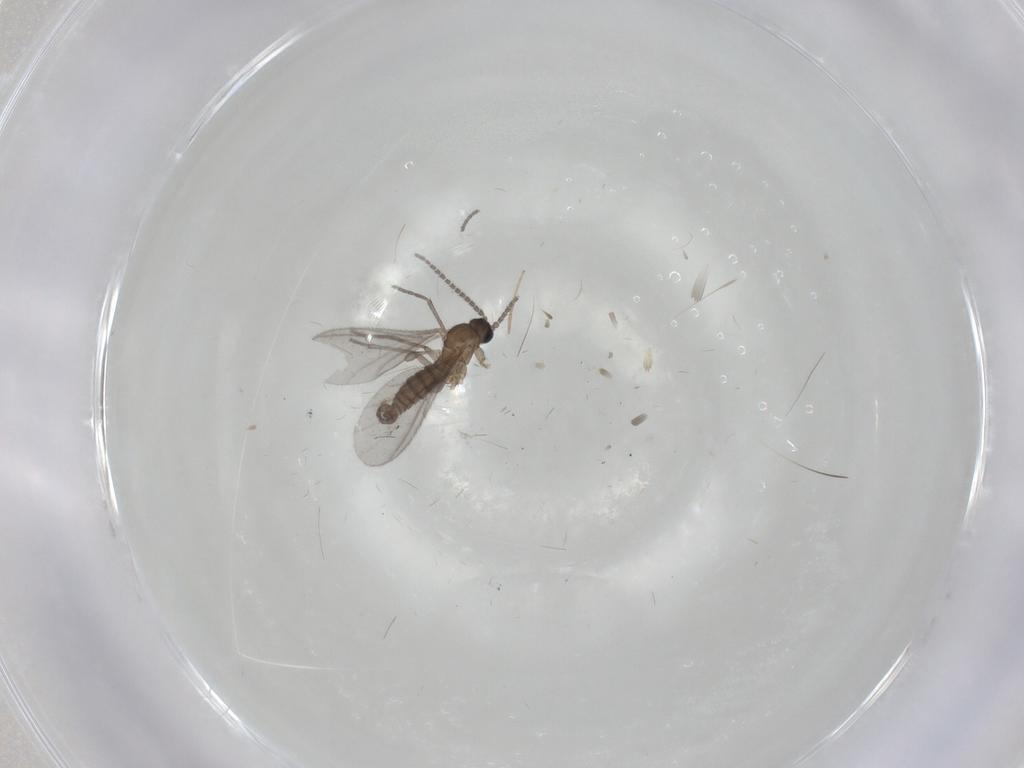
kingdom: Animalia
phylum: Arthropoda
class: Insecta
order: Diptera
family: Sciaridae
